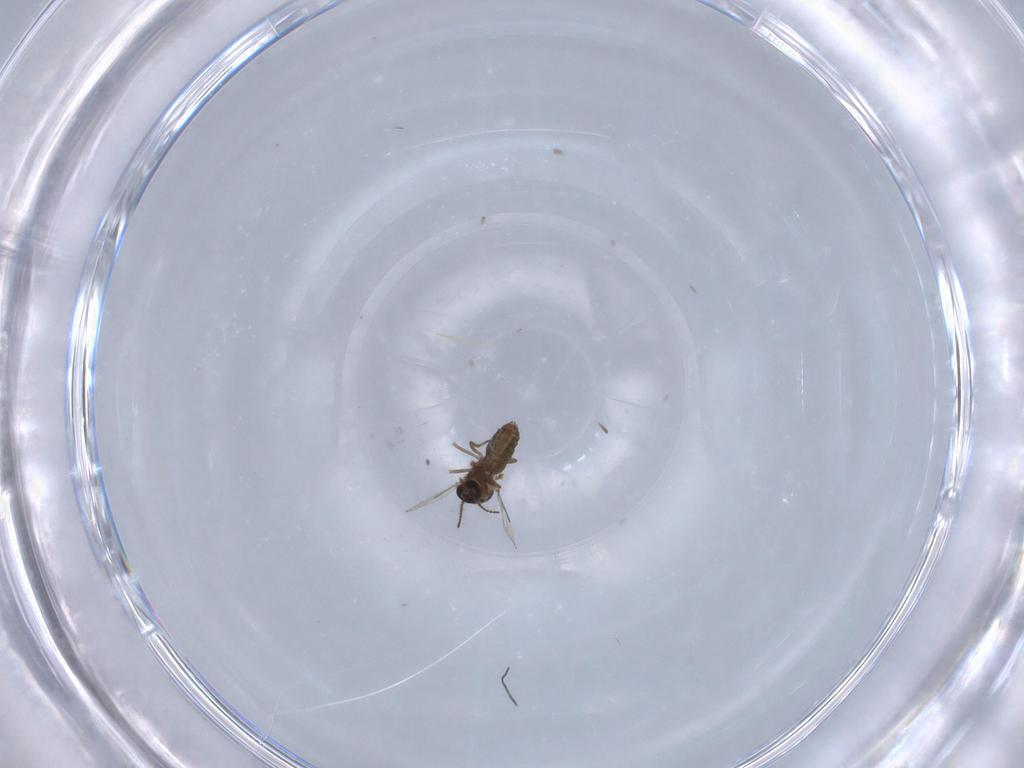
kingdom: Animalia
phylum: Arthropoda
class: Insecta
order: Diptera
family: Ceratopogonidae
